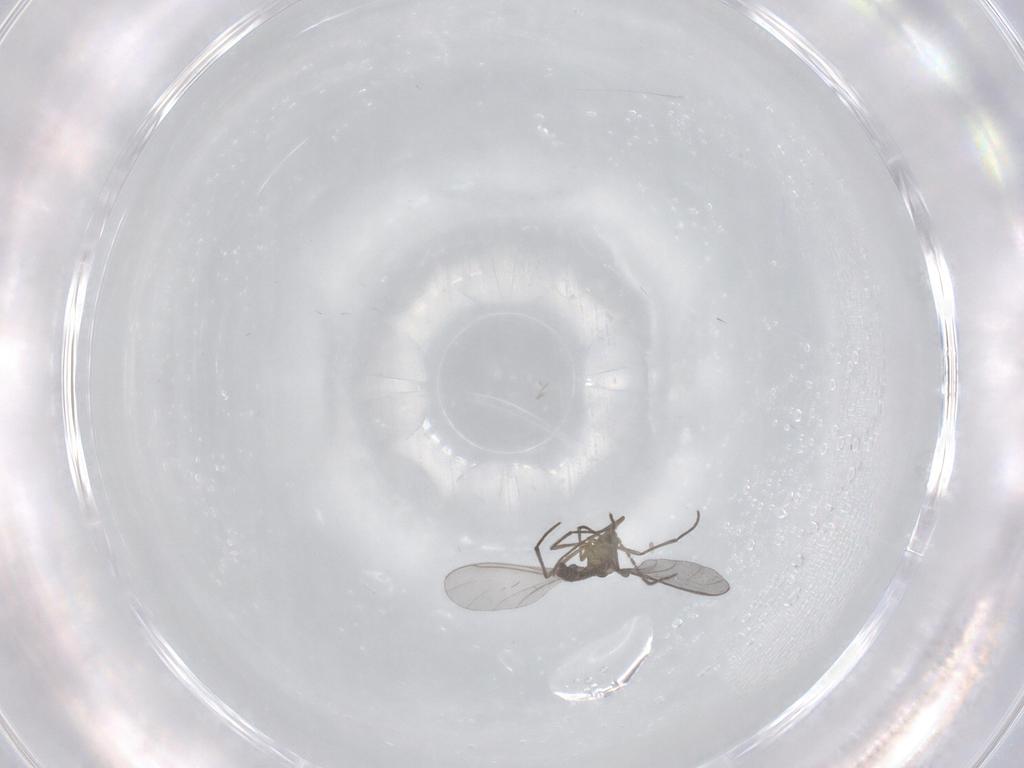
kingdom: Animalia
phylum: Arthropoda
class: Insecta
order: Diptera
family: Sciaridae
